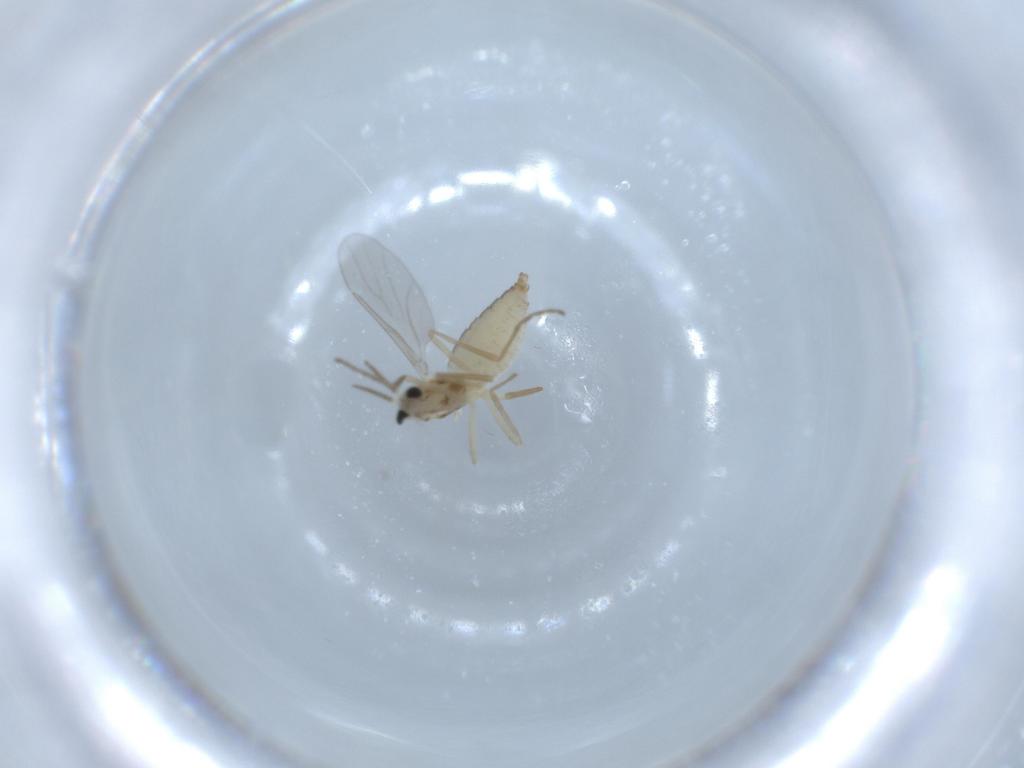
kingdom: Animalia
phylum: Arthropoda
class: Insecta
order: Diptera
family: Cecidomyiidae
